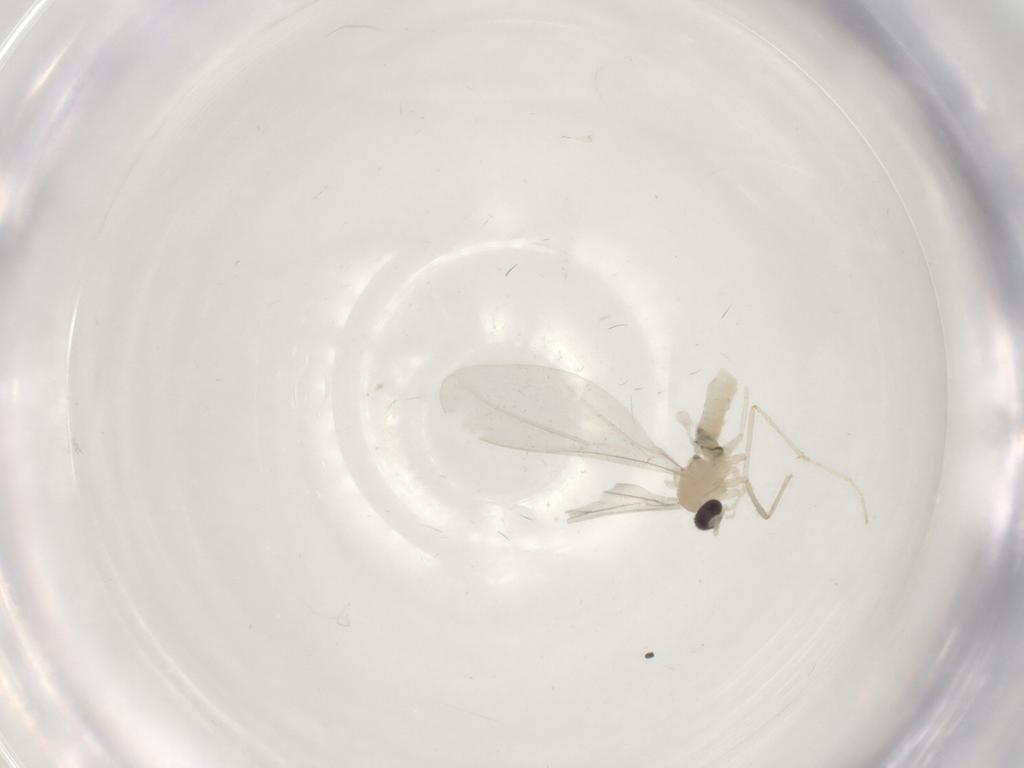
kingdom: Animalia
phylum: Arthropoda
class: Insecta
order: Diptera
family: Cecidomyiidae
